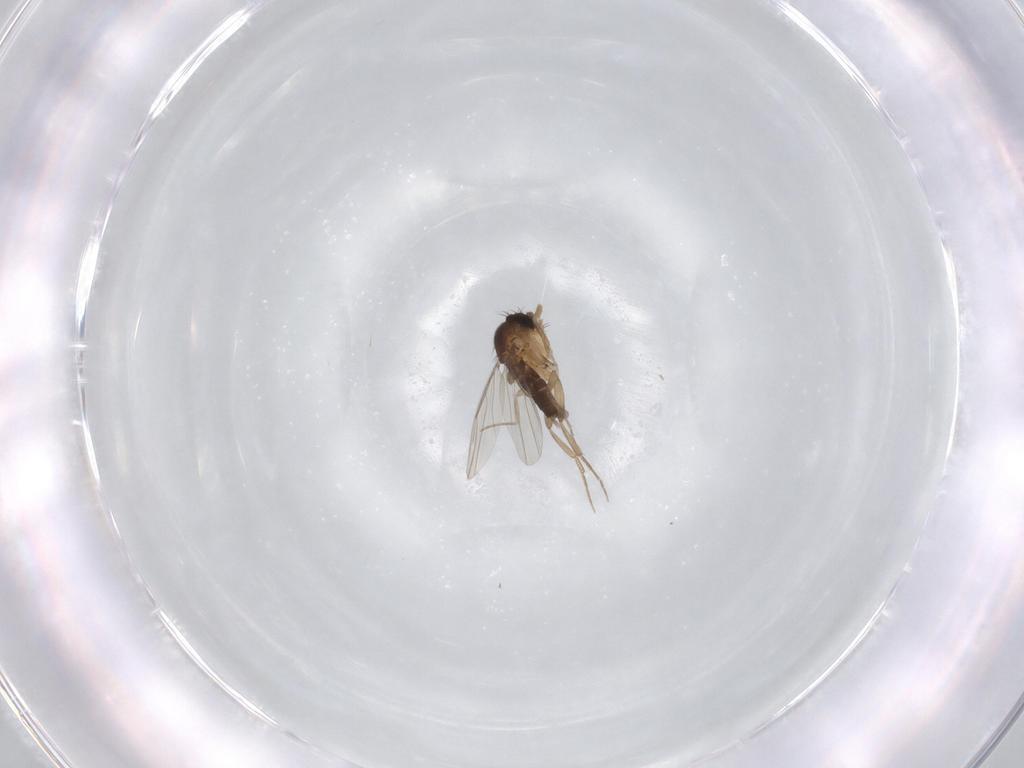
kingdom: Animalia
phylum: Arthropoda
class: Insecta
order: Diptera
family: Phoridae
